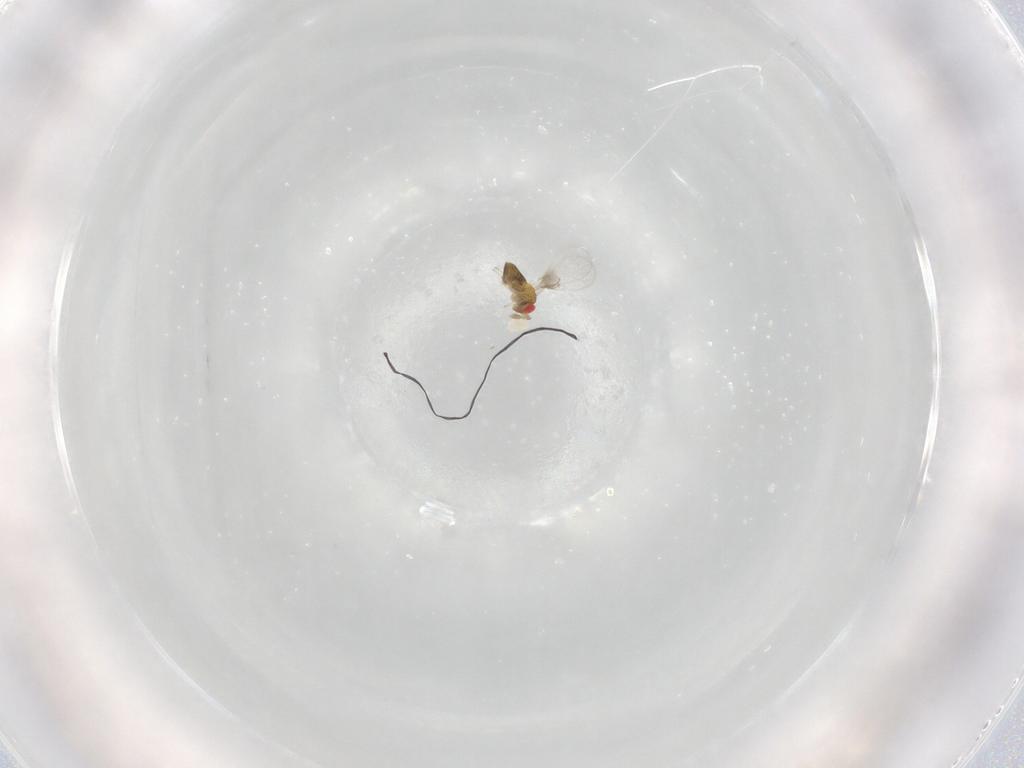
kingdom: Animalia
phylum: Arthropoda
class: Insecta
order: Hymenoptera
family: Trichogrammatidae
